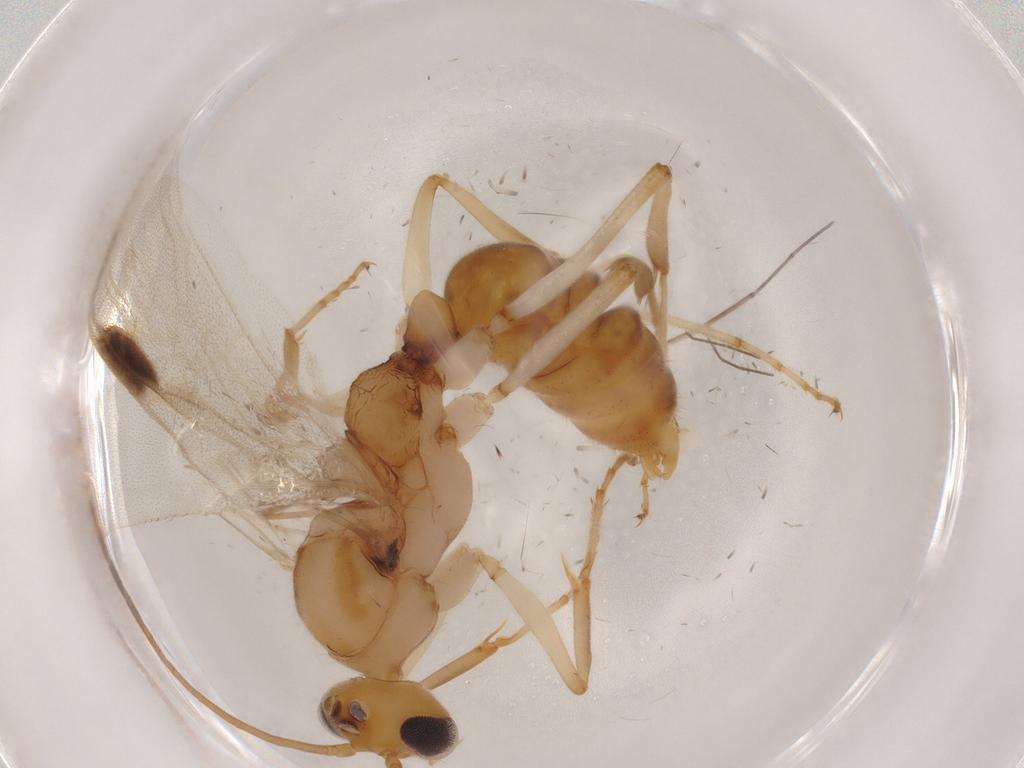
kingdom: Animalia
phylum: Arthropoda
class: Insecta
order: Hymenoptera
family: Formicidae
